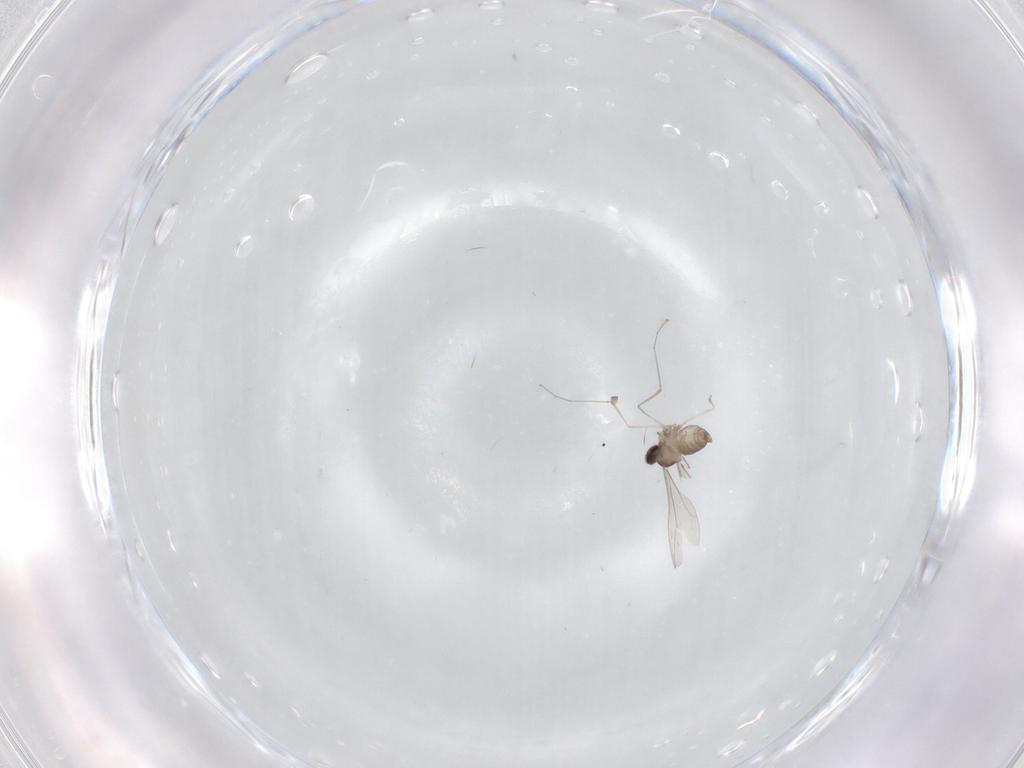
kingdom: Animalia
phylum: Arthropoda
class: Insecta
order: Diptera
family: Cecidomyiidae
